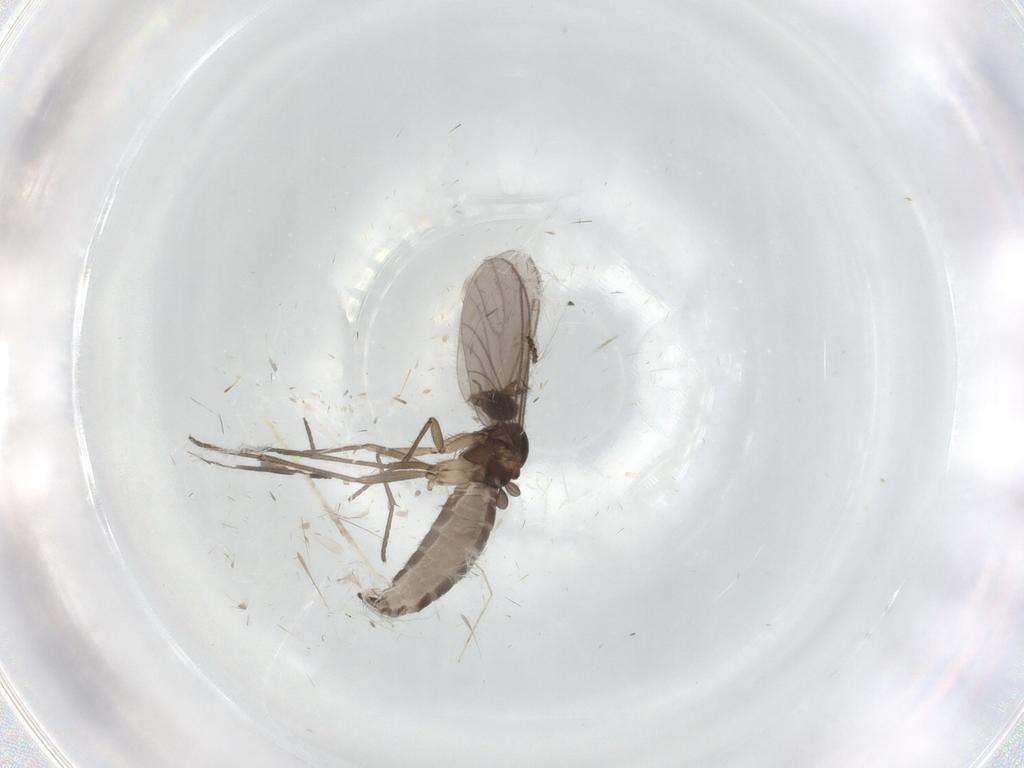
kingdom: Animalia
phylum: Arthropoda
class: Insecta
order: Diptera
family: Sciaridae
